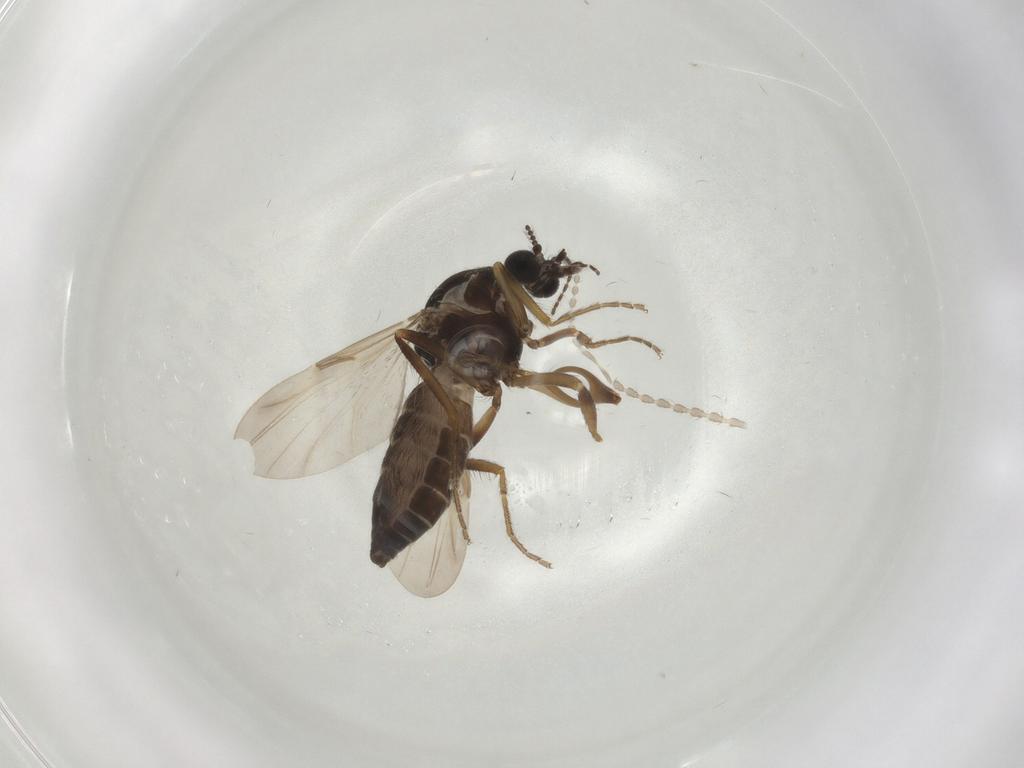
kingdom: Animalia
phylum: Arthropoda
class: Insecta
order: Diptera
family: Ceratopogonidae
